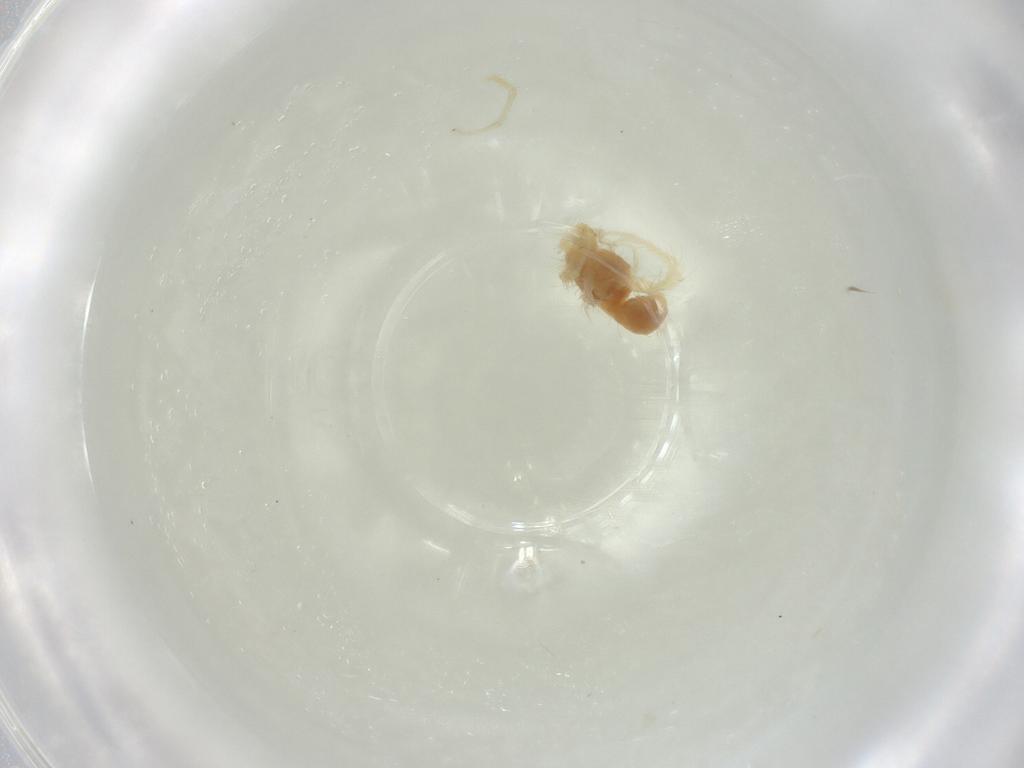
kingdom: Animalia
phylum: Arthropoda
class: Arachnida
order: Trombidiformes
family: Anystidae
